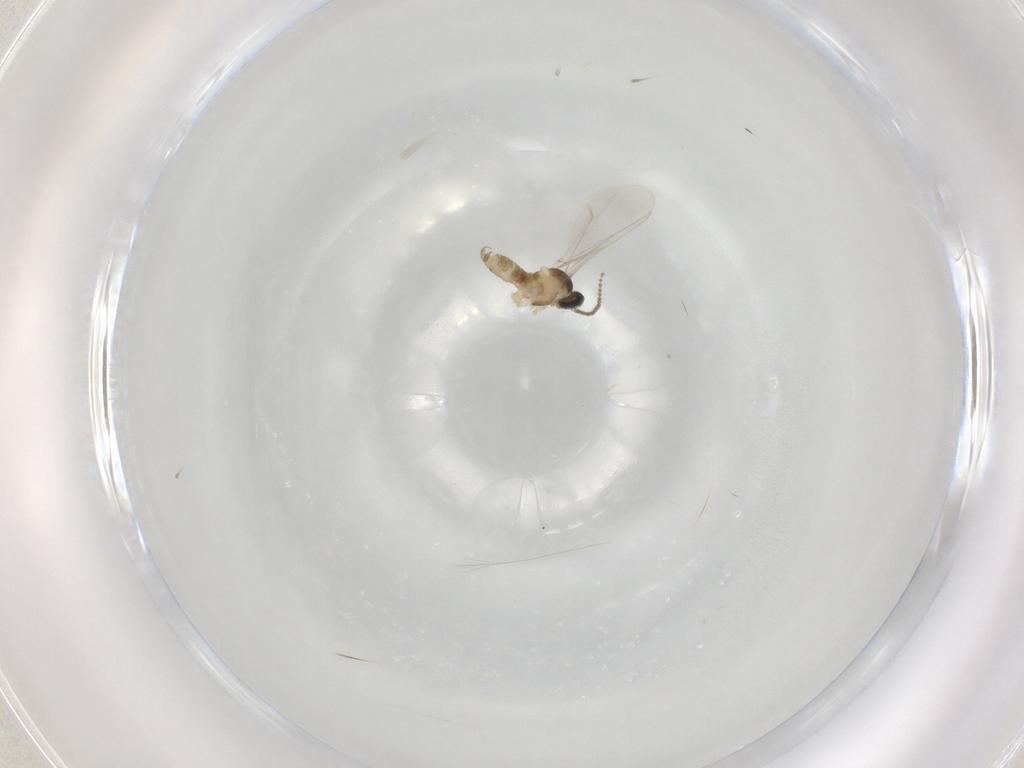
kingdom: Animalia
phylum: Arthropoda
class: Insecta
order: Diptera
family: Cecidomyiidae
